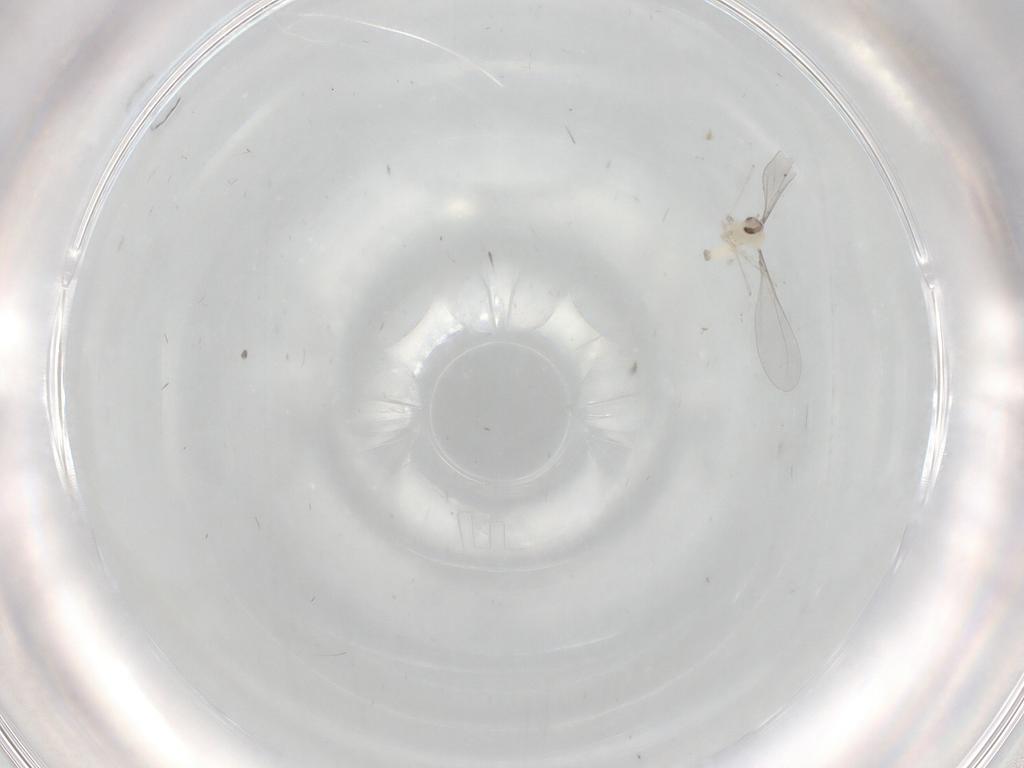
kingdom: Animalia
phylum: Arthropoda
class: Insecta
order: Diptera
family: Cecidomyiidae
